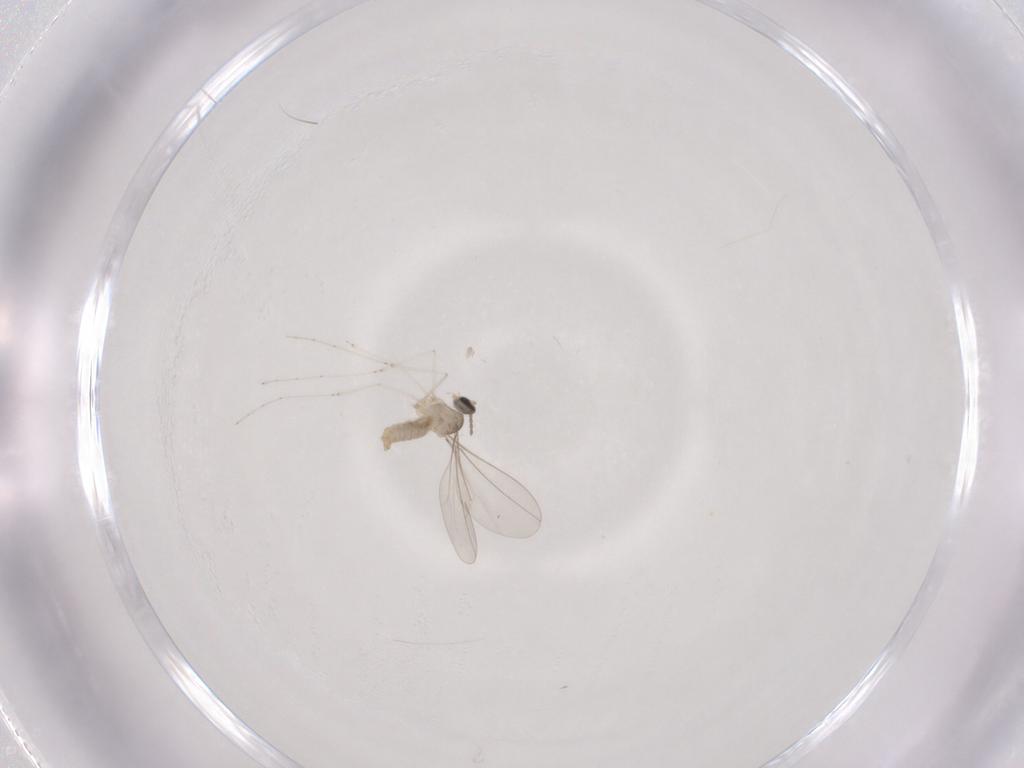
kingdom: Animalia
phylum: Arthropoda
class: Insecta
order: Diptera
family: Cecidomyiidae
